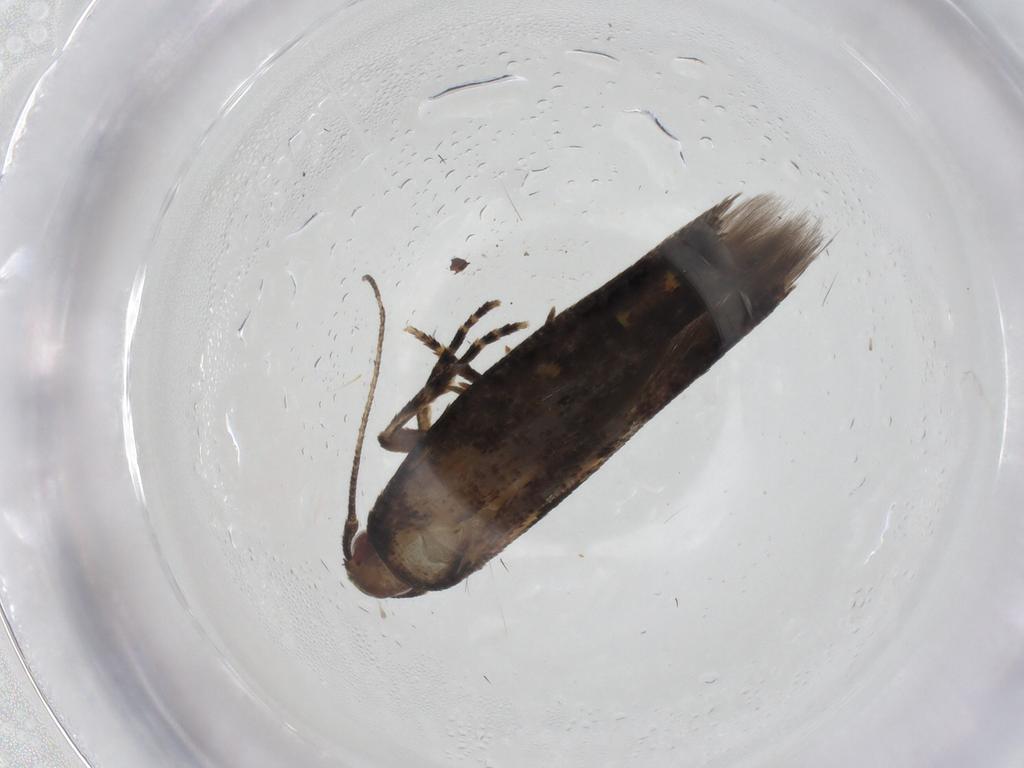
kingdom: Animalia
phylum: Arthropoda
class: Insecta
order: Lepidoptera
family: Elachistidae
